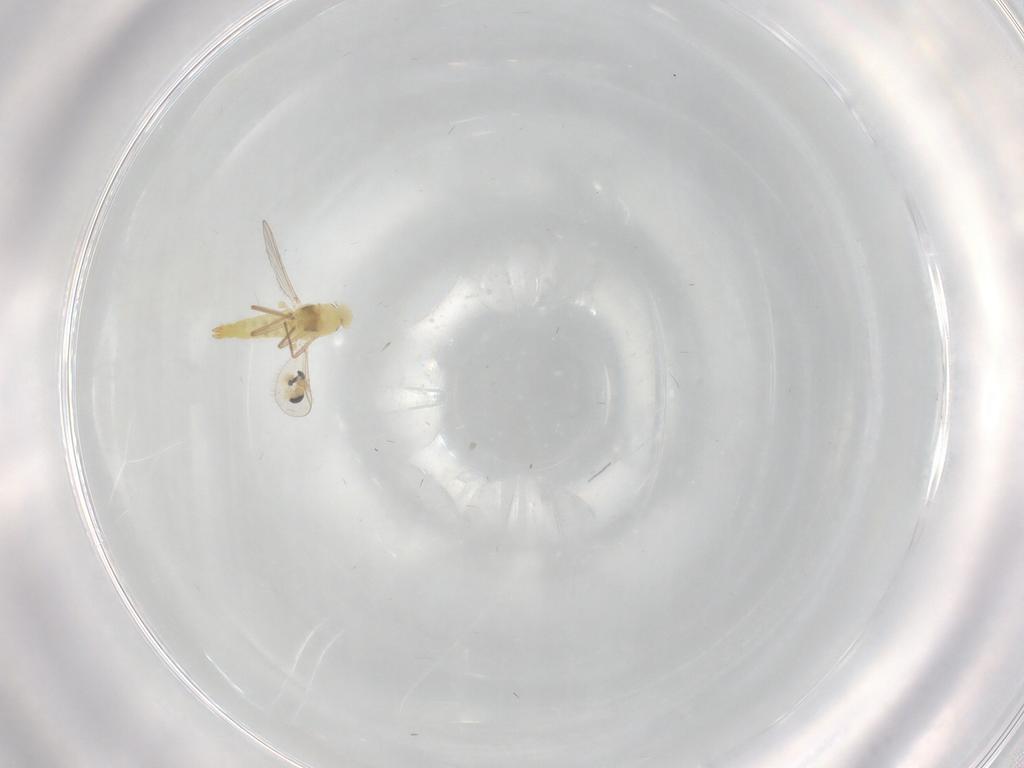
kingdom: Animalia
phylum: Arthropoda
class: Insecta
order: Diptera
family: Chironomidae
